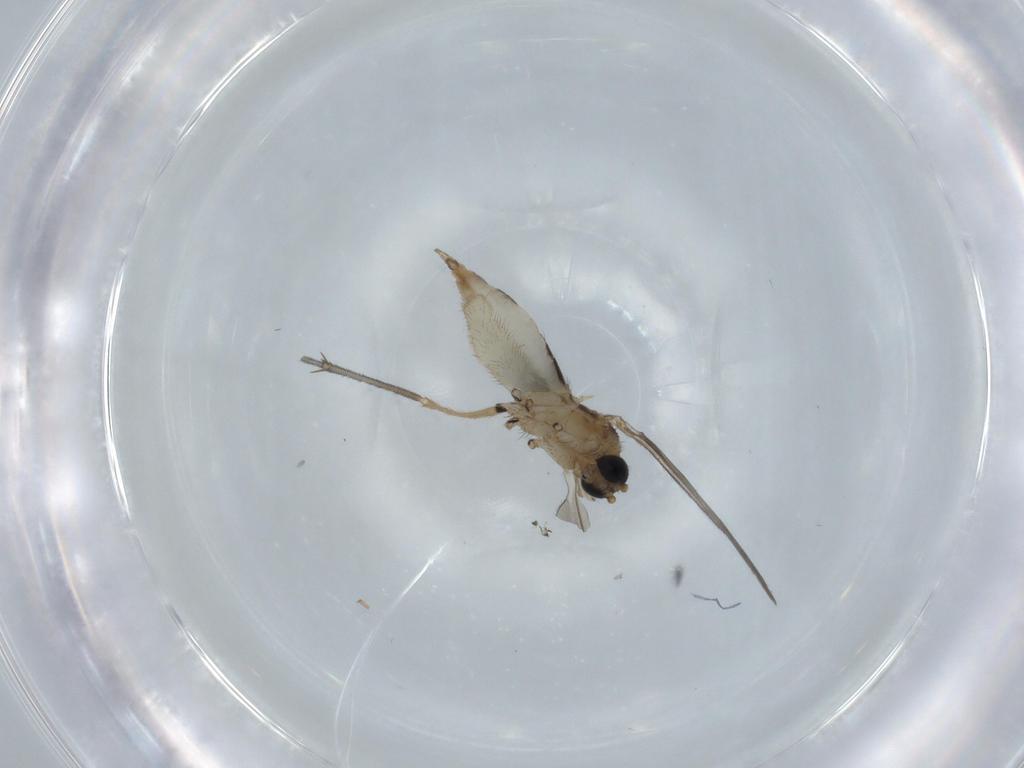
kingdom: Animalia
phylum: Arthropoda
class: Insecta
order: Diptera
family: Sciaridae
